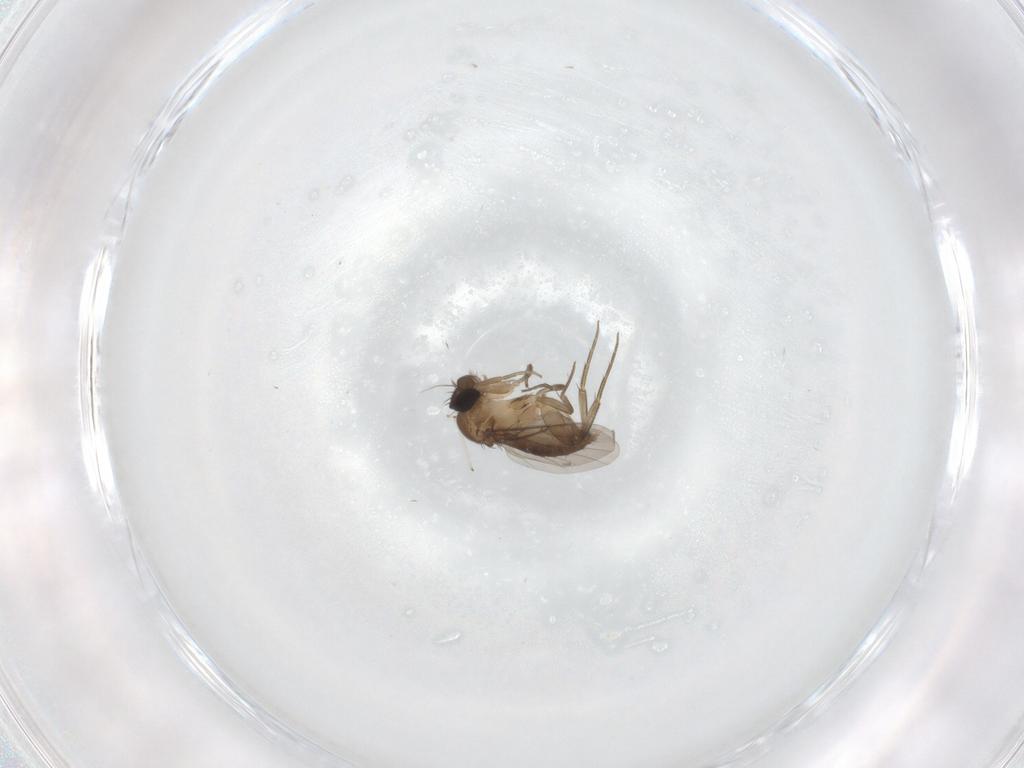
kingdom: Animalia
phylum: Arthropoda
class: Insecta
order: Diptera
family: Phoridae
